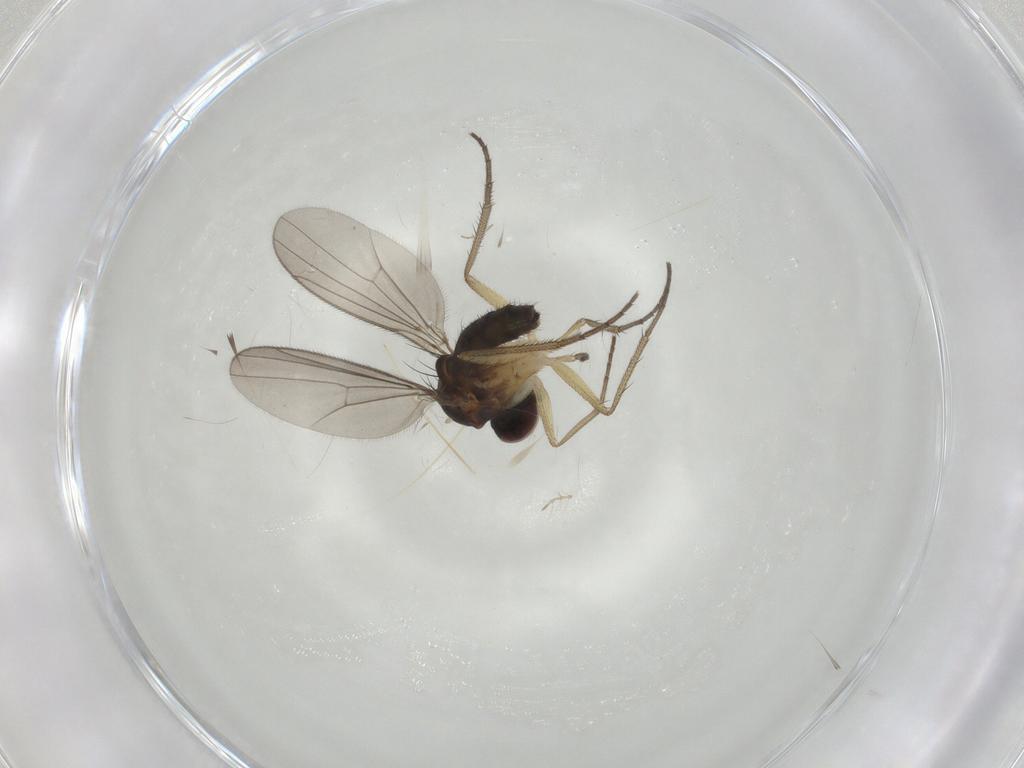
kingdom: Animalia
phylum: Arthropoda
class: Insecta
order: Diptera
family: Dolichopodidae
